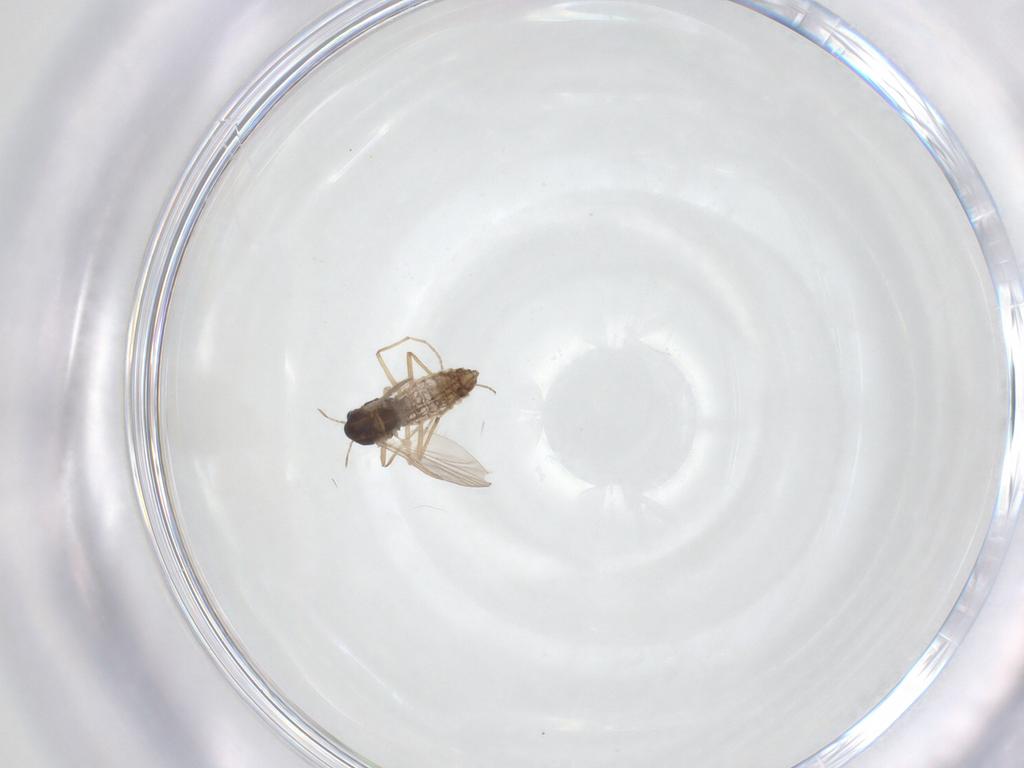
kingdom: Animalia
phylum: Arthropoda
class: Insecta
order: Diptera
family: Chironomidae
